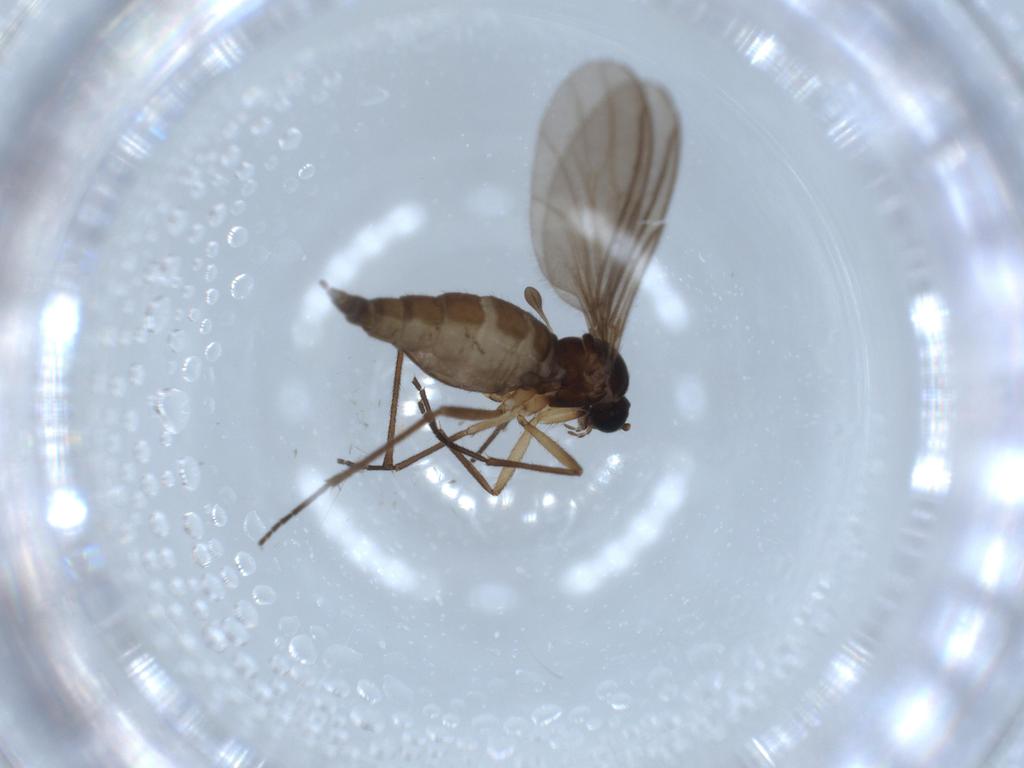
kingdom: Animalia
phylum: Arthropoda
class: Insecta
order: Diptera
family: Sciaridae
